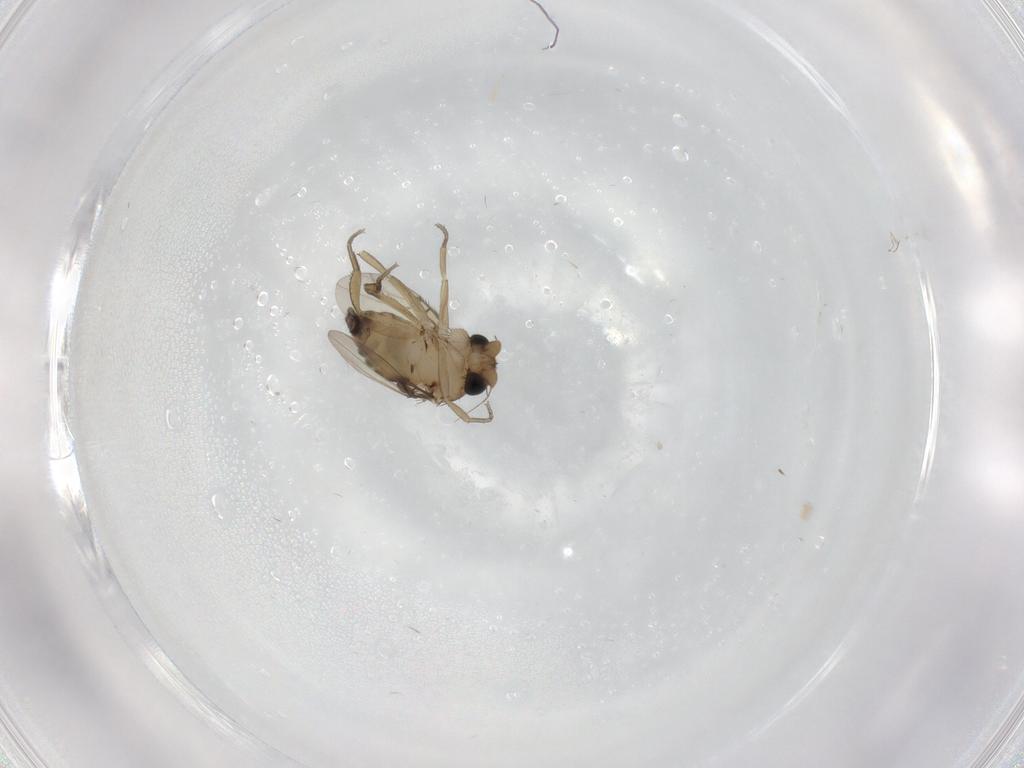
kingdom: Animalia
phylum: Arthropoda
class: Insecta
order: Diptera
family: Phoridae
